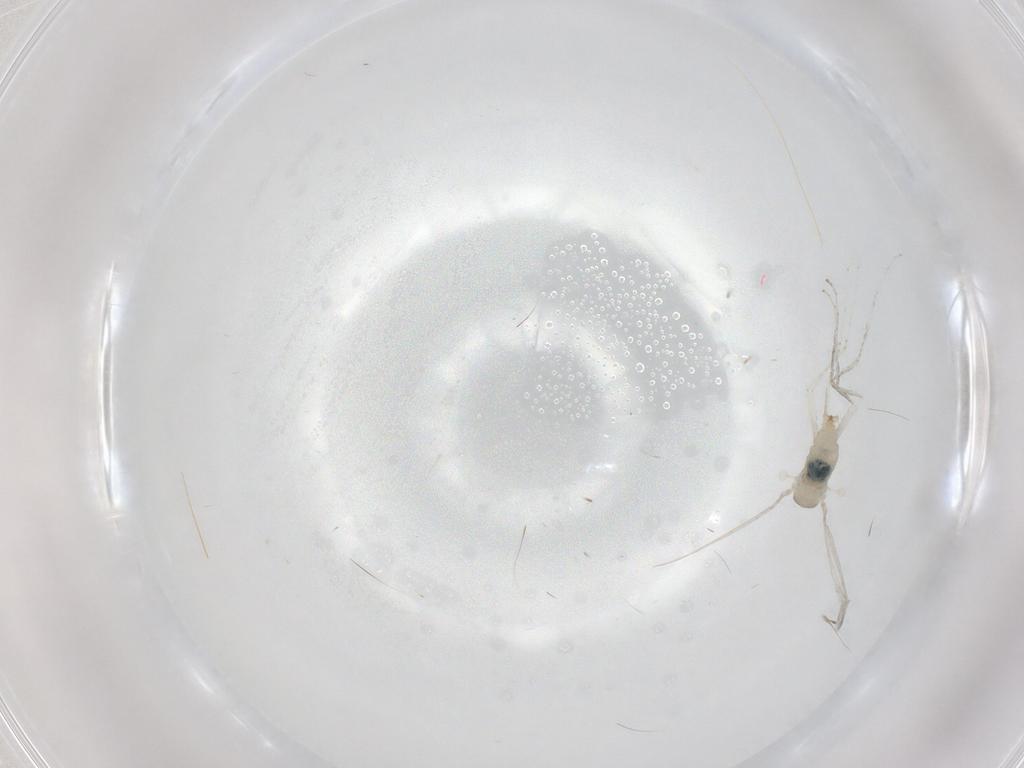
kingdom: Animalia
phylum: Arthropoda
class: Insecta
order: Diptera
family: Cecidomyiidae
